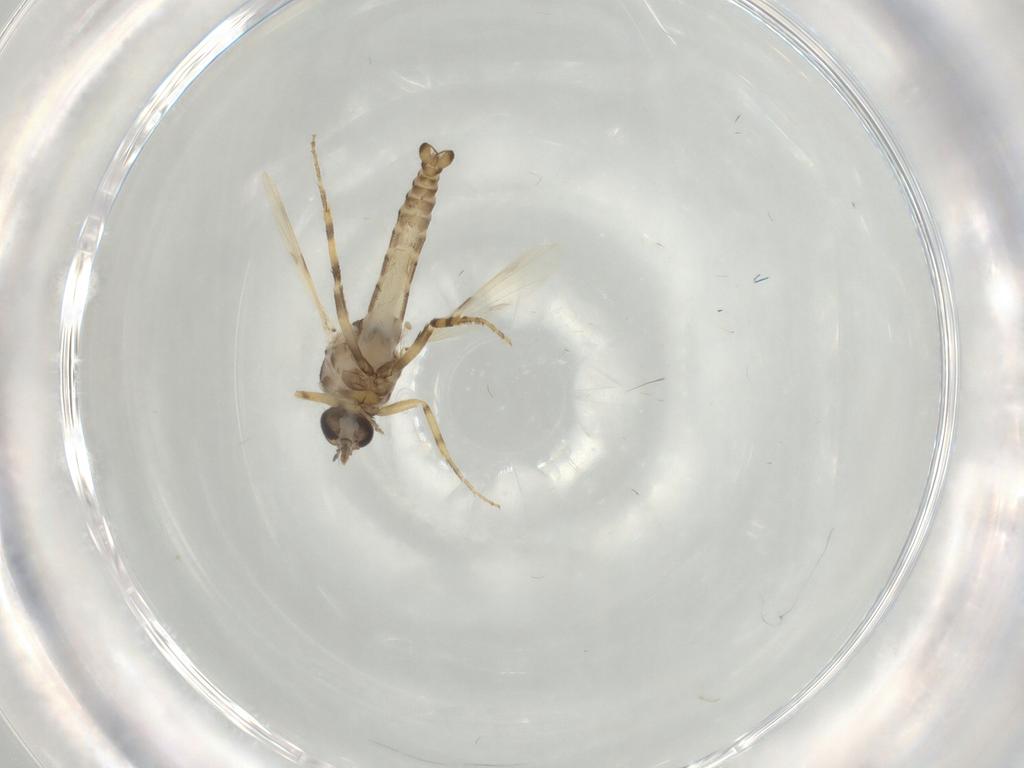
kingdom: Animalia
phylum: Arthropoda
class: Insecta
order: Diptera
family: Ceratopogonidae
